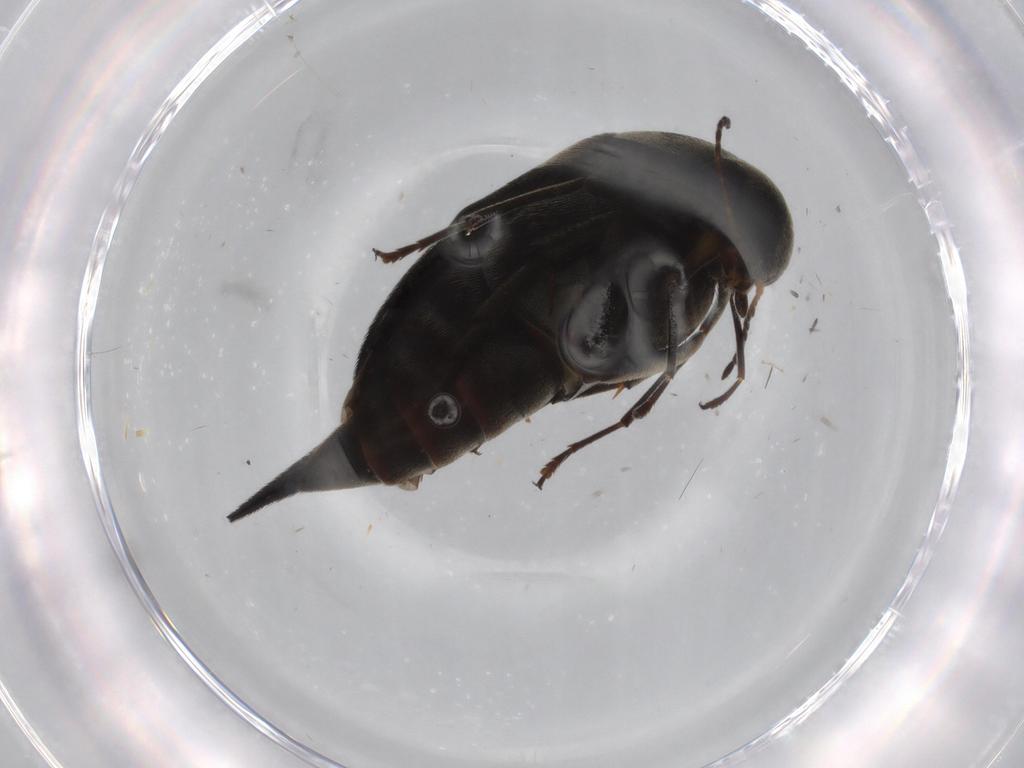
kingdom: Animalia
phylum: Arthropoda
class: Insecta
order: Coleoptera
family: Mordellidae
